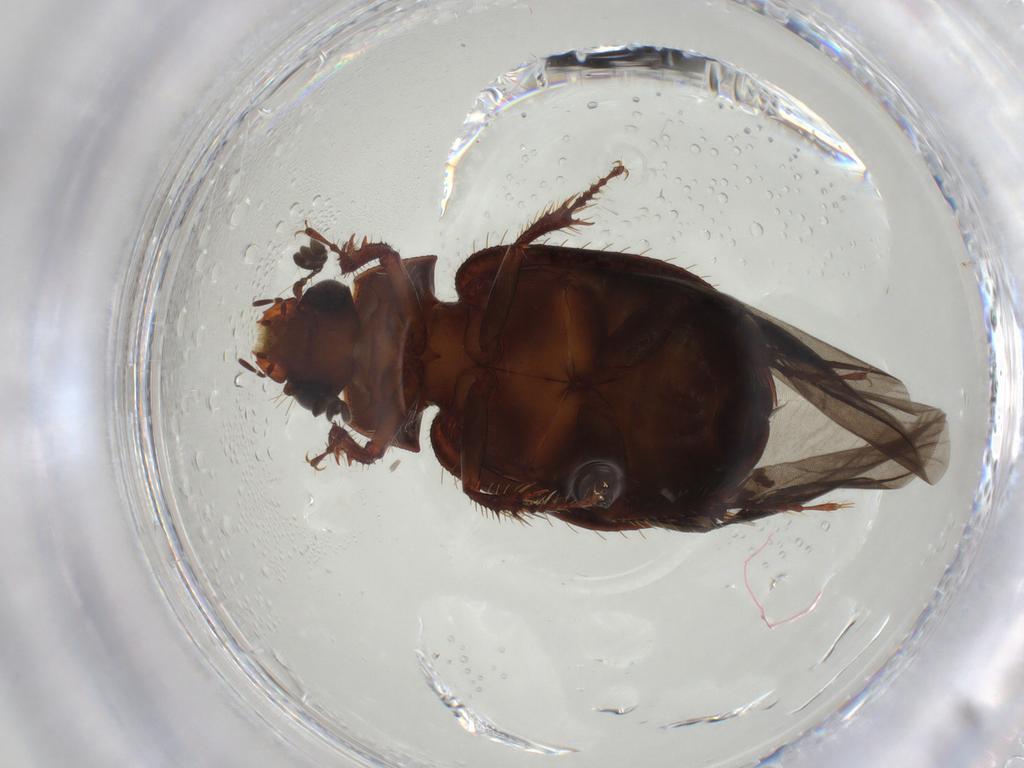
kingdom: Animalia
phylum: Arthropoda
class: Insecta
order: Coleoptera
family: Hybosoridae
